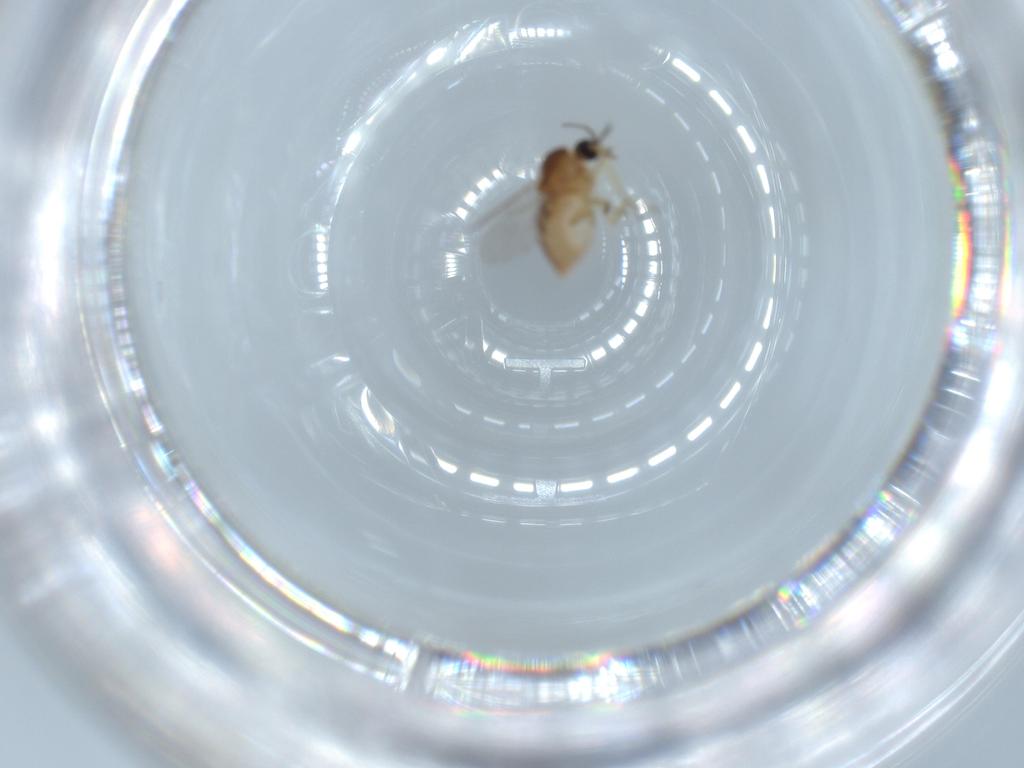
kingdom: Animalia
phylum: Arthropoda
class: Insecta
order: Diptera
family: Ceratopogonidae
